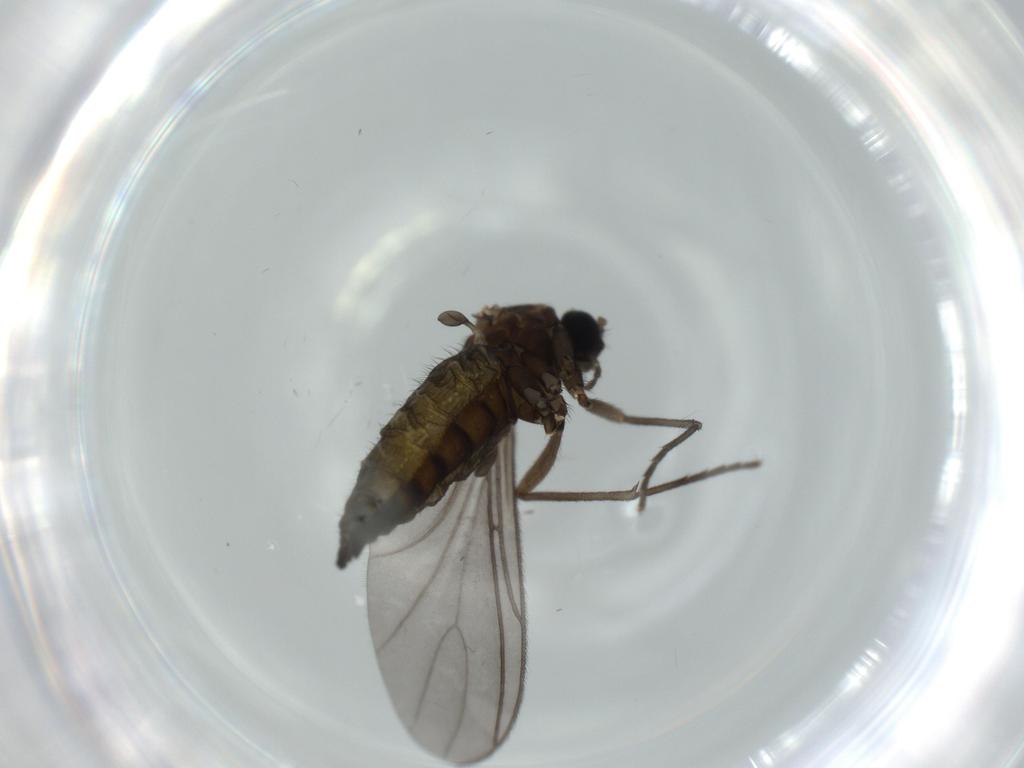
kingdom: Animalia
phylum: Arthropoda
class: Insecta
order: Diptera
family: Sciaridae
